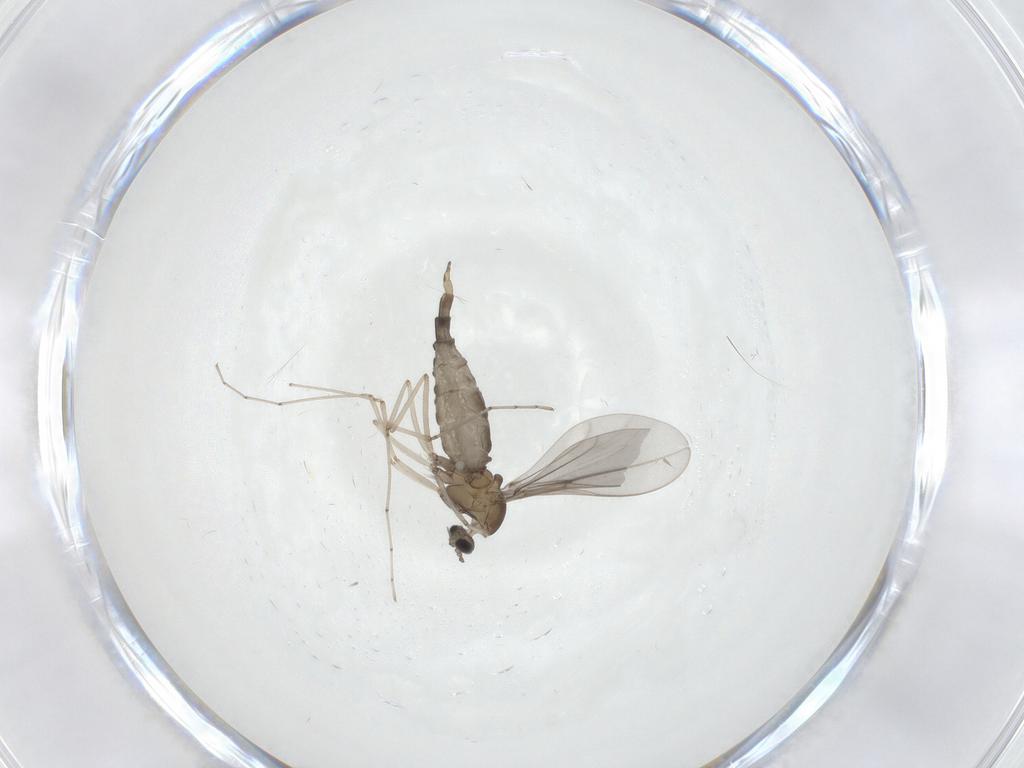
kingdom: Animalia
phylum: Arthropoda
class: Insecta
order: Diptera
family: Cecidomyiidae
